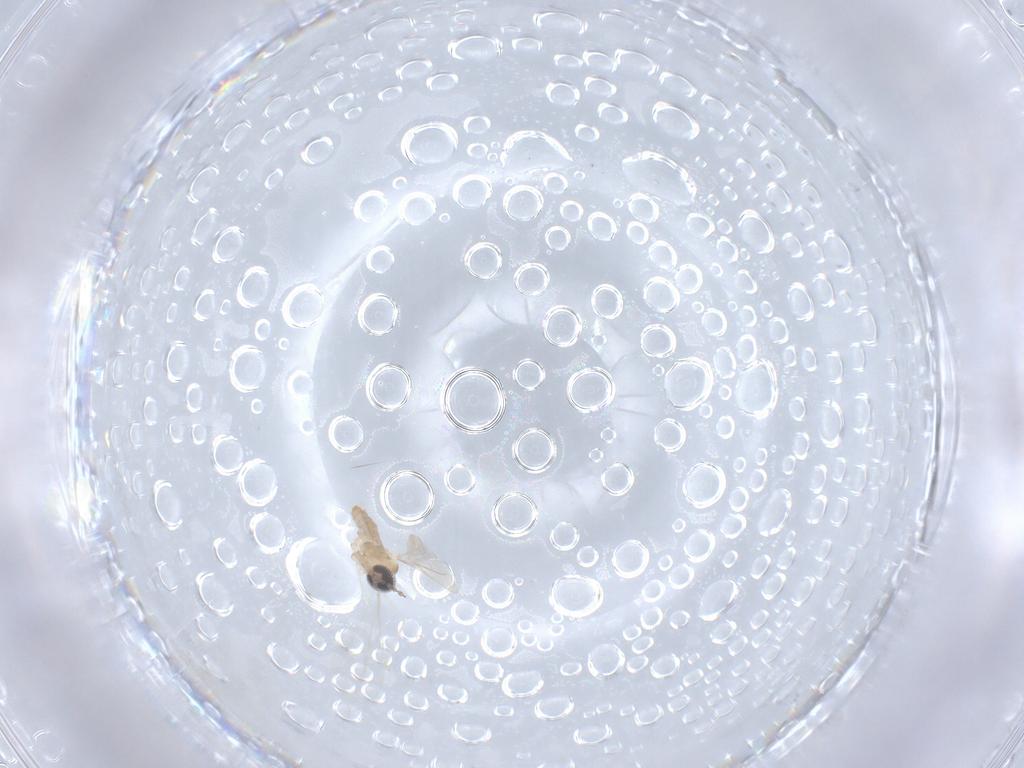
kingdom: Animalia
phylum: Arthropoda
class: Insecta
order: Diptera
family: Cecidomyiidae
